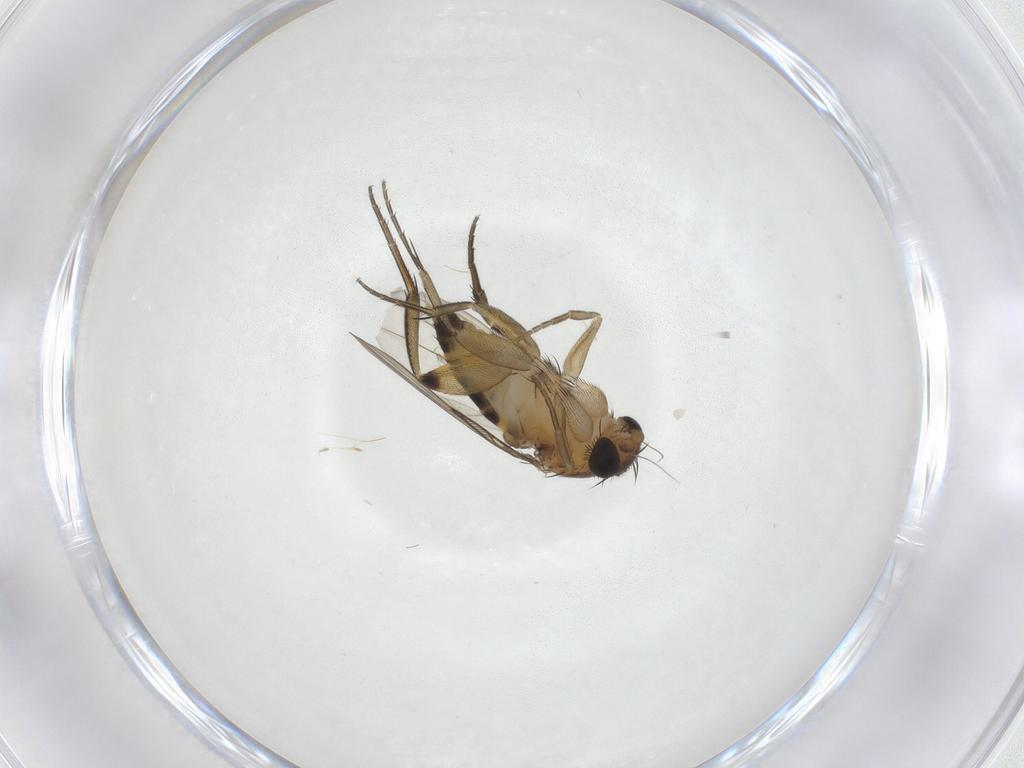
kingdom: Animalia
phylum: Arthropoda
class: Insecta
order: Diptera
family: Phoridae
